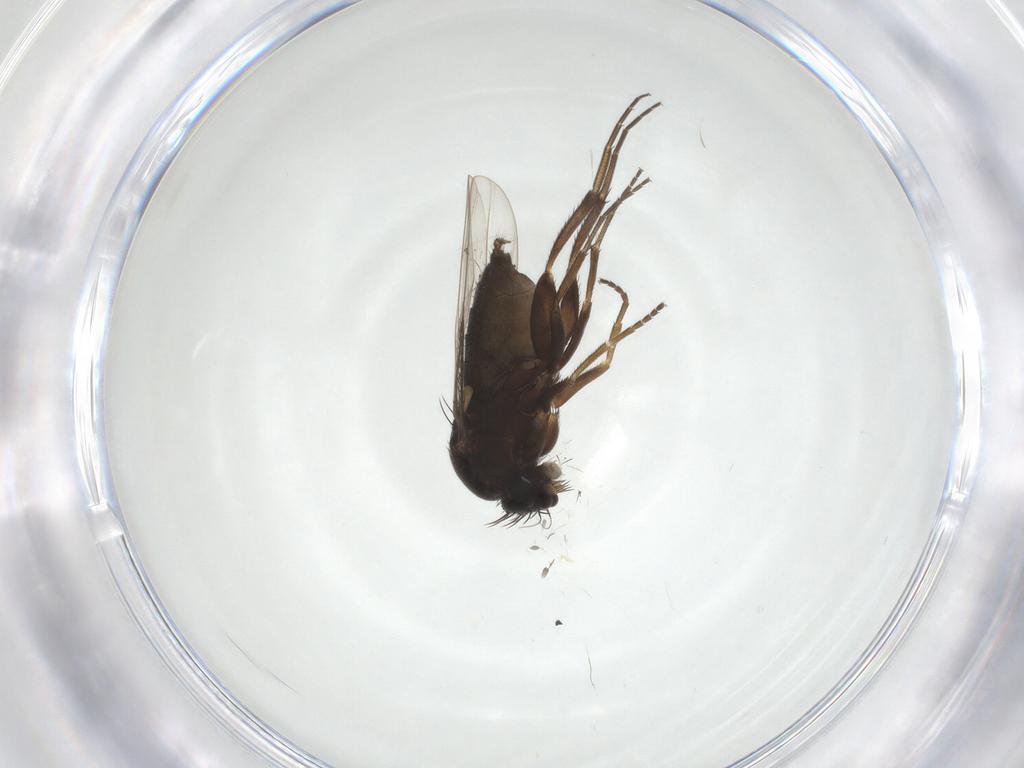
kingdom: Animalia
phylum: Arthropoda
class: Insecta
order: Diptera
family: Phoridae
